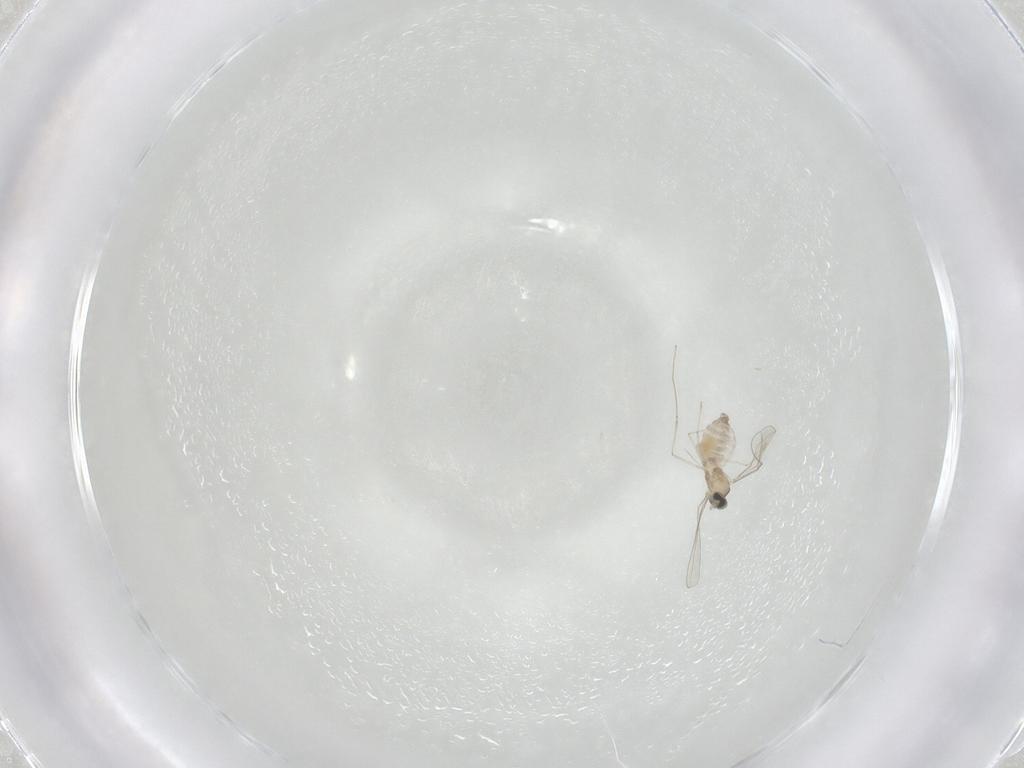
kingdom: Animalia
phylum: Arthropoda
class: Insecta
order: Diptera
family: Cecidomyiidae
